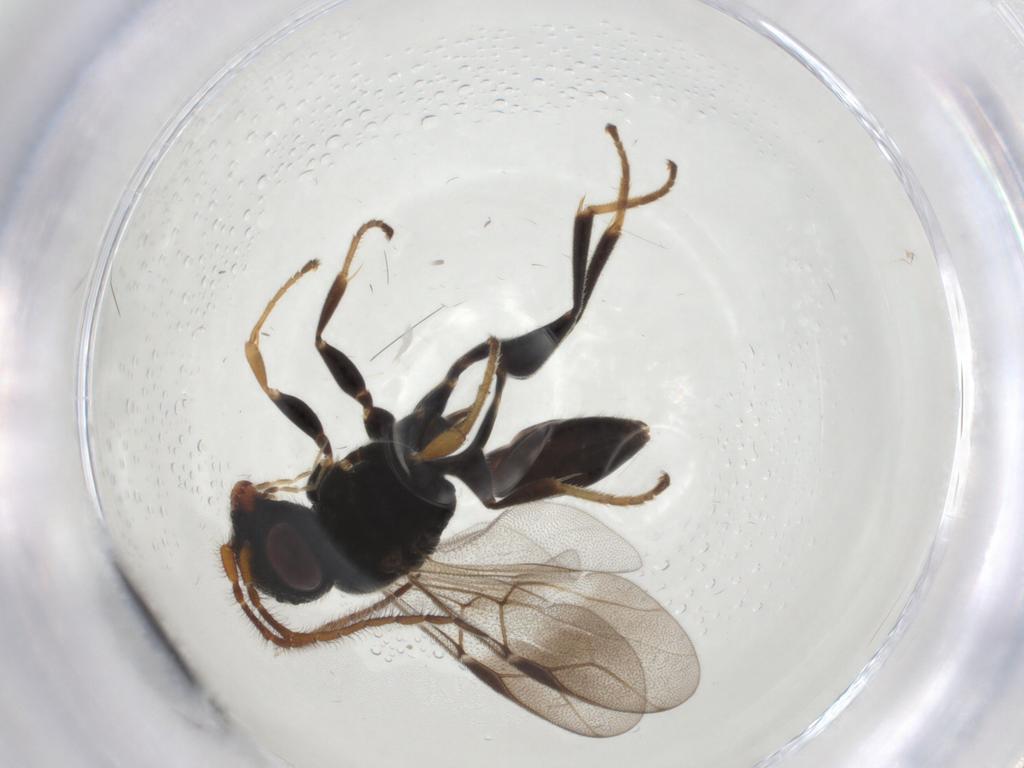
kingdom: Animalia
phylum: Arthropoda
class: Insecta
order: Hymenoptera
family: Dryinidae
